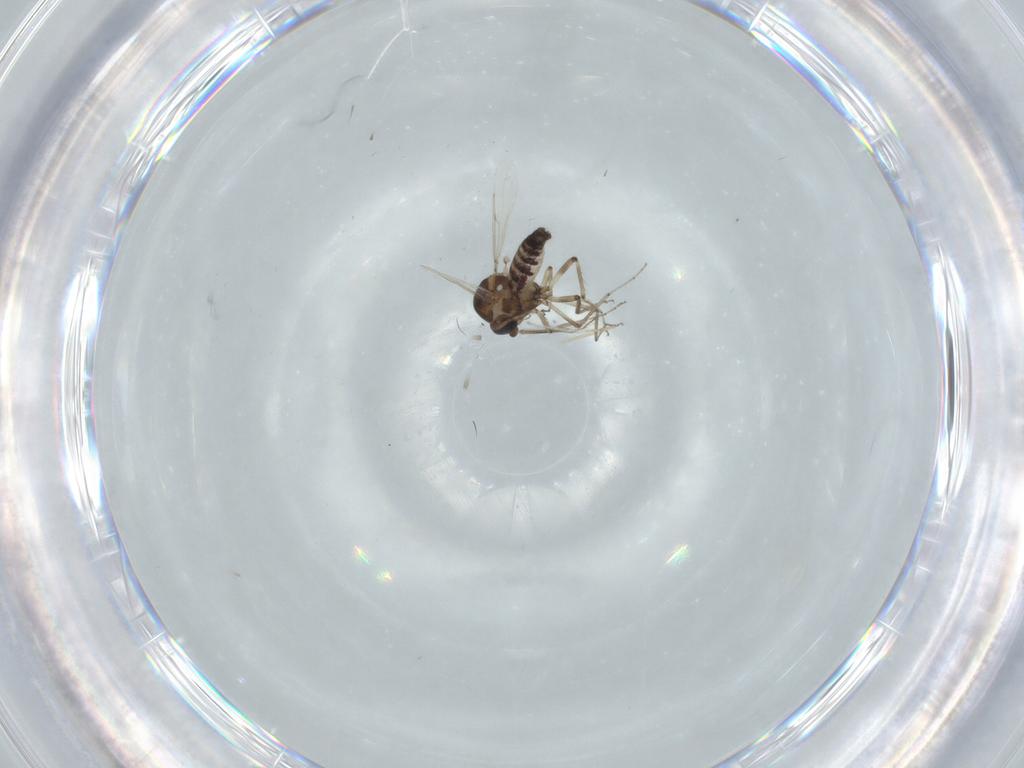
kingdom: Animalia
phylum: Arthropoda
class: Insecta
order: Diptera
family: Ceratopogonidae
